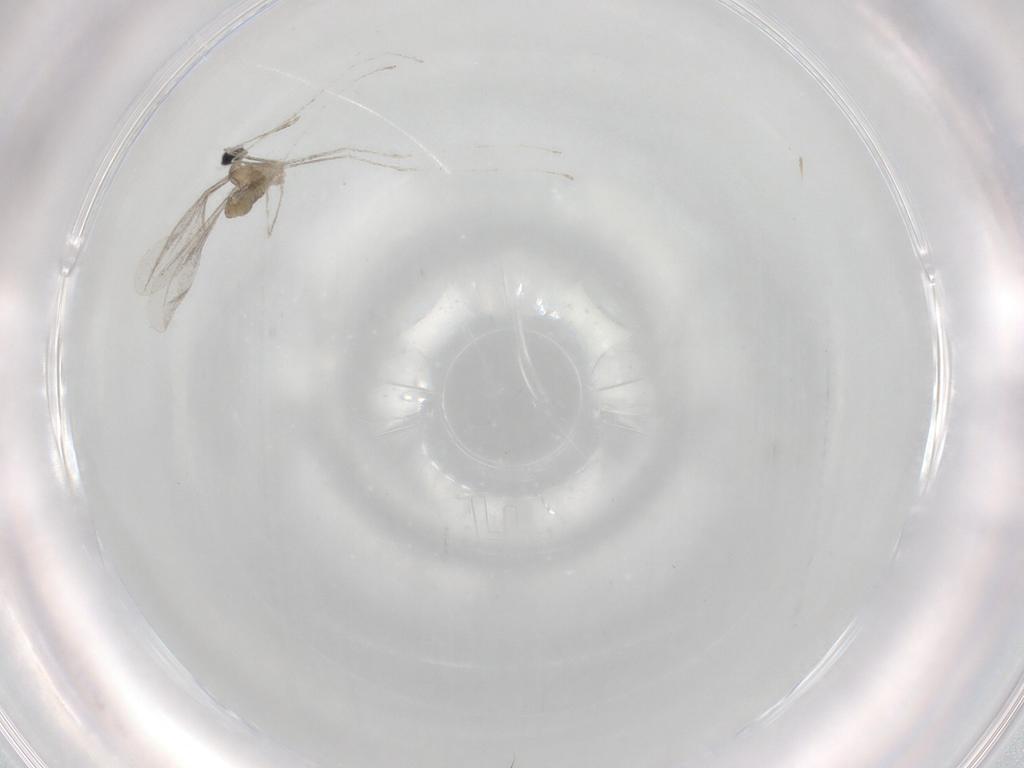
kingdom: Animalia
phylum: Arthropoda
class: Insecta
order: Diptera
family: Cecidomyiidae
